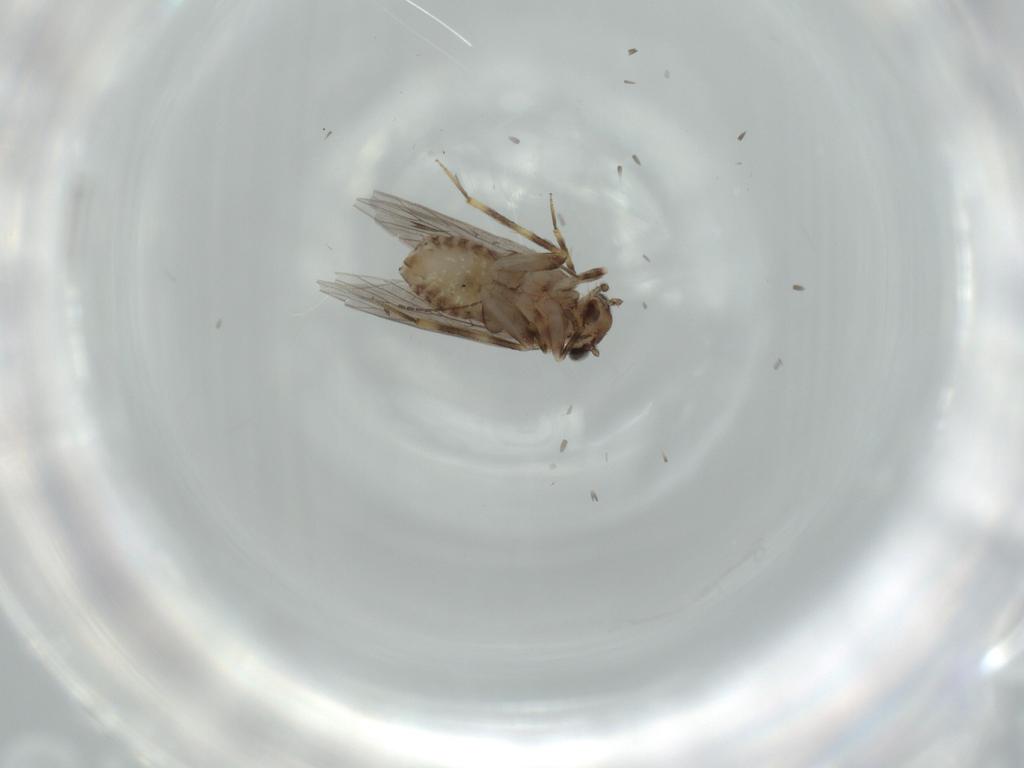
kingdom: Animalia
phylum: Arthropoda
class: Insecta
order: Psocodea
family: Lepidopsocidae
